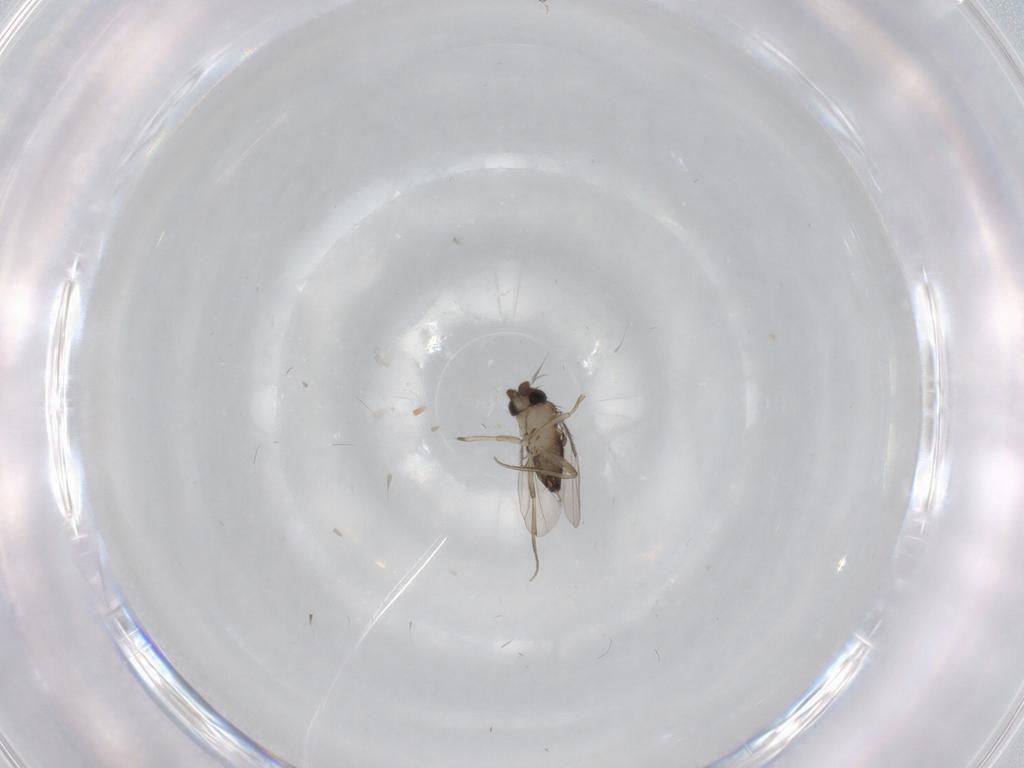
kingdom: Animalia
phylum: Arthropoda
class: Insecta
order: Diptera
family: Phoridae
